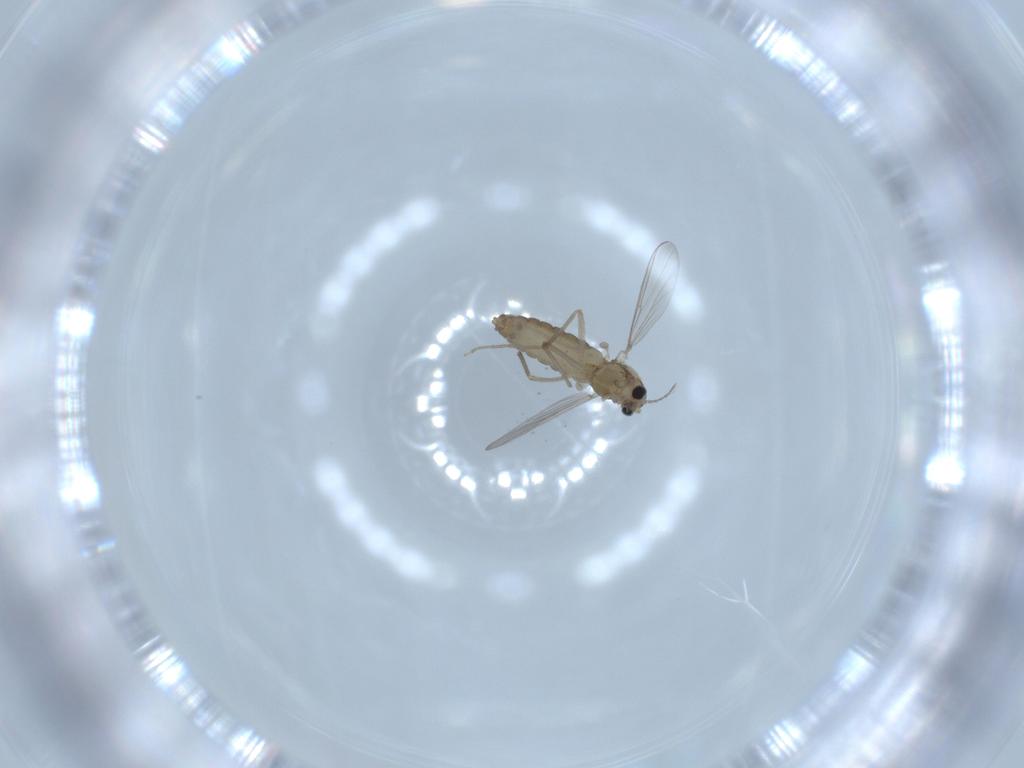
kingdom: Animalia
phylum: Arthropoda
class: Insecta
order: Diptera
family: Chironomidae
